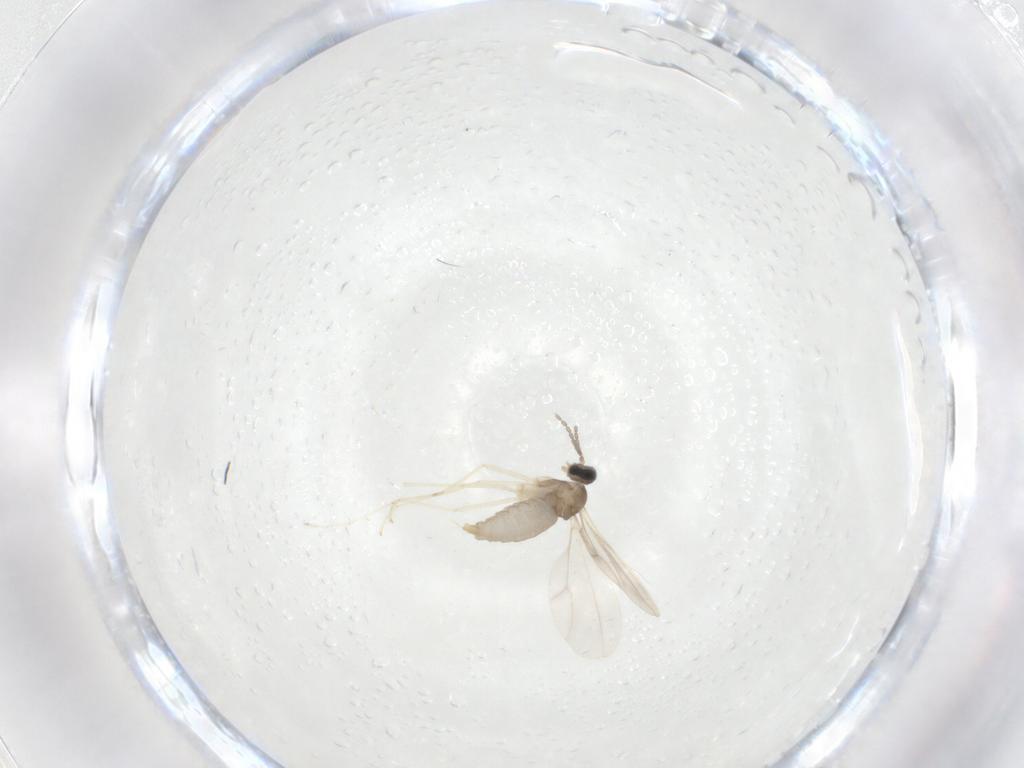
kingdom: Animalia
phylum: Arthropoda
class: Insecta
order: Diptera
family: Cecidomyiidae
